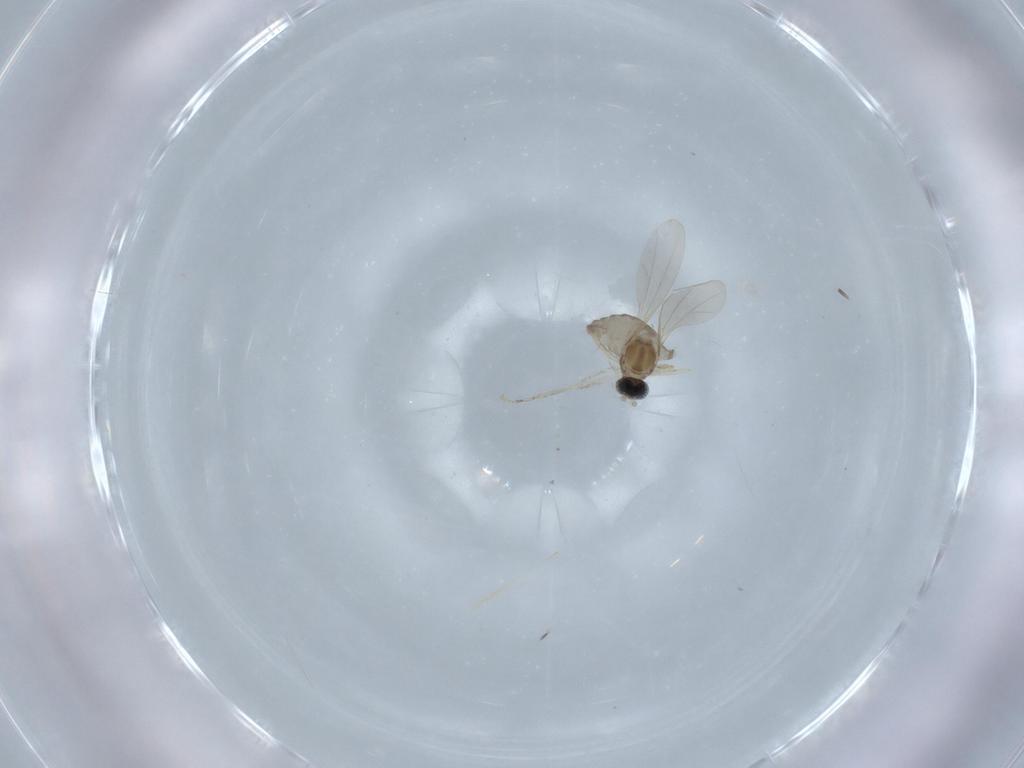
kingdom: Animalia
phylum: Arthropoda
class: Insecta
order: Diptera
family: Cecidomyiidae
